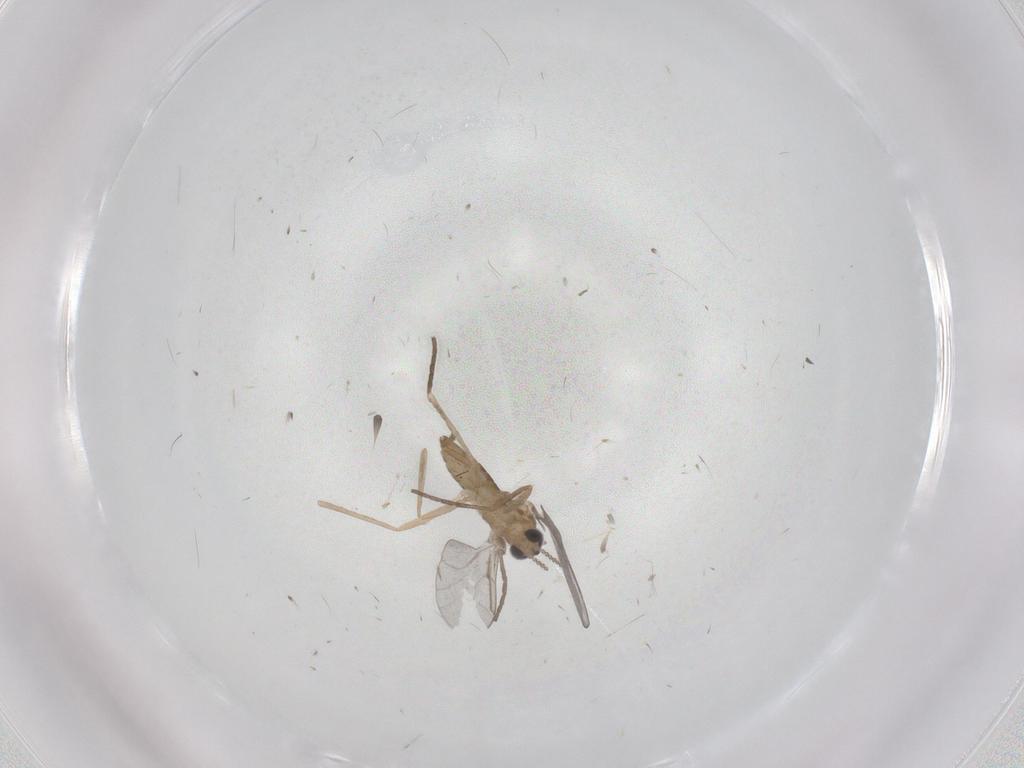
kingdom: Animalia
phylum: Arthropoda
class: Insecta
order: Diptera
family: Cecidomyiidae
